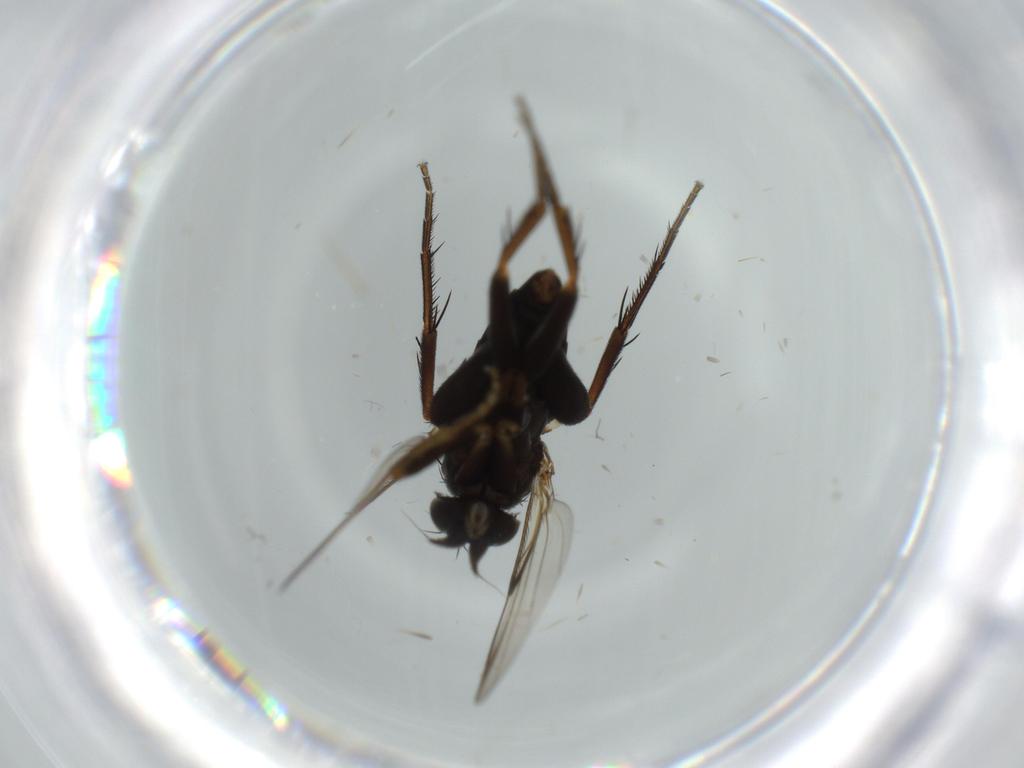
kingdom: Animalia
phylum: Arthropoda
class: Insecta
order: Diptera
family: Phoridae
